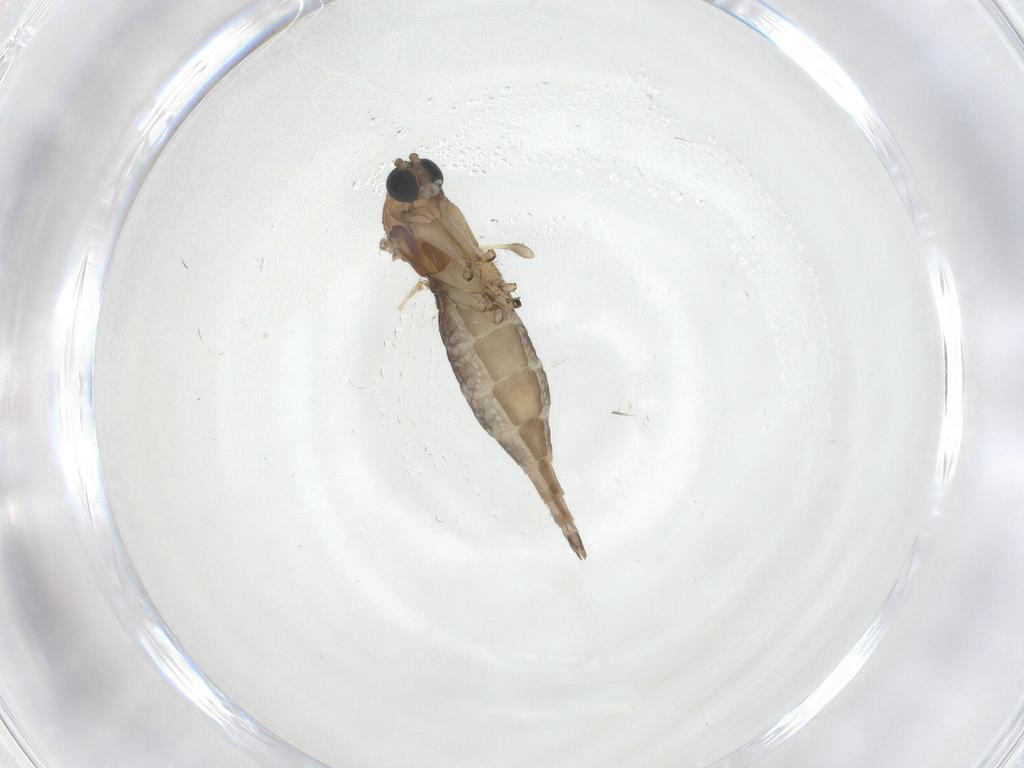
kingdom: Animalia
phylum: Arthropoda
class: Insecta
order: Diptera
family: Sciaridae
